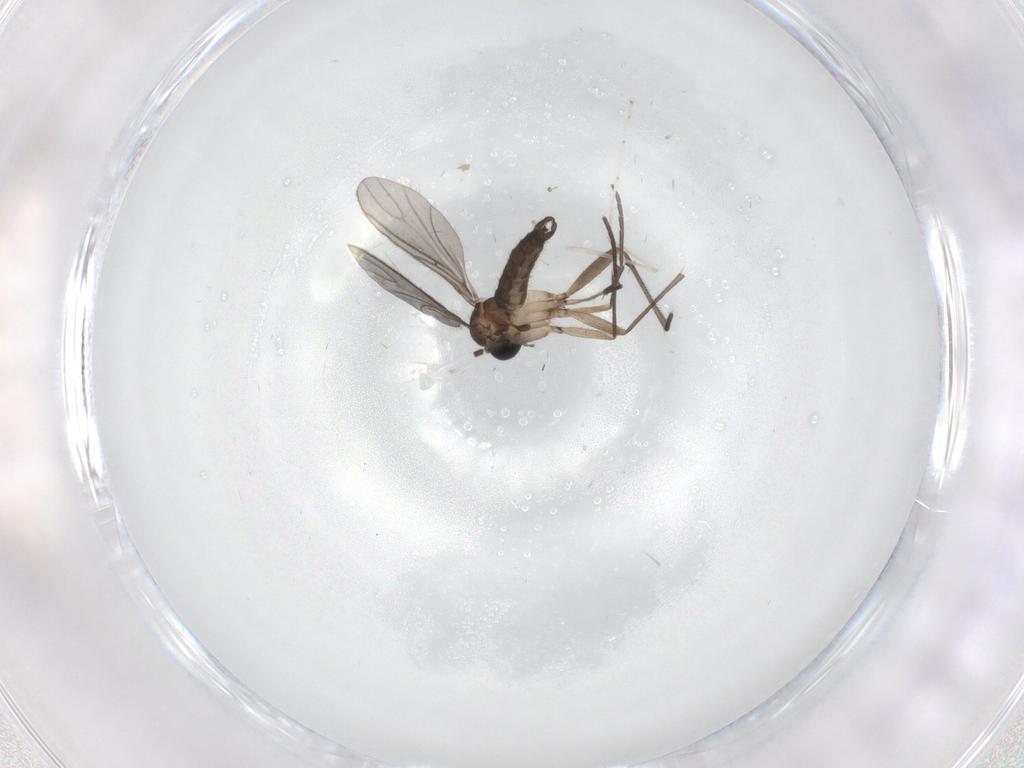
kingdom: Animalia
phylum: Arthropoda
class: Insecta
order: Diptera
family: Cecidomyiidae
